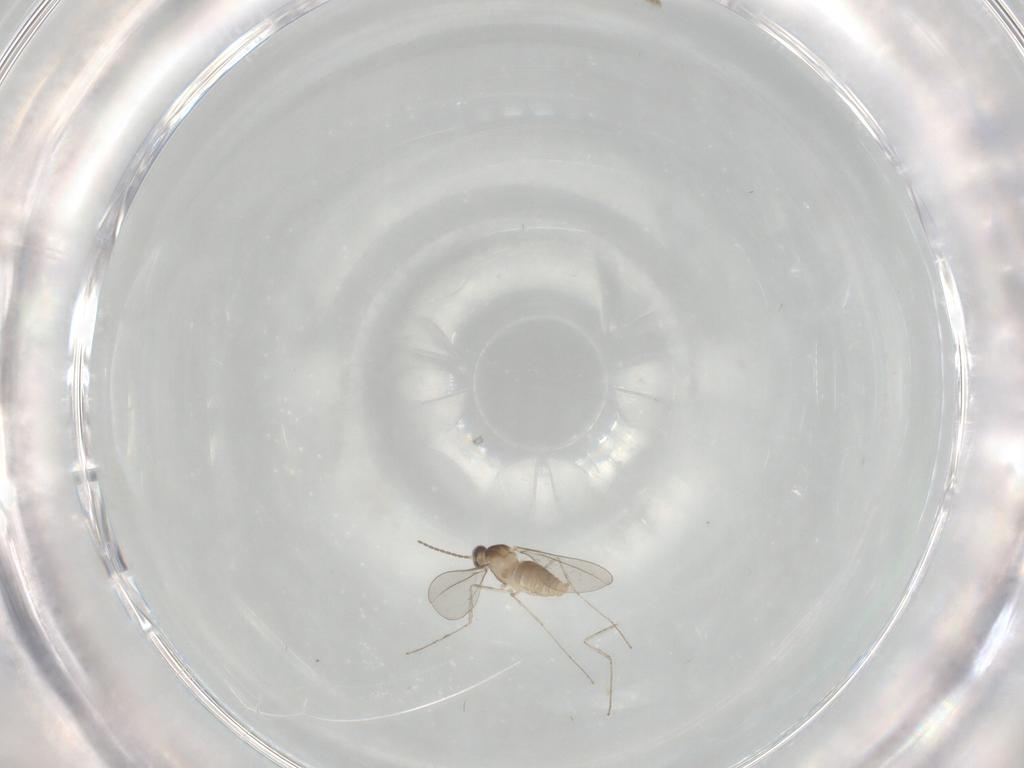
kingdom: Animalia
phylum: Arthropoda
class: Insecta
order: Diptera
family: Cecidomyiidae
